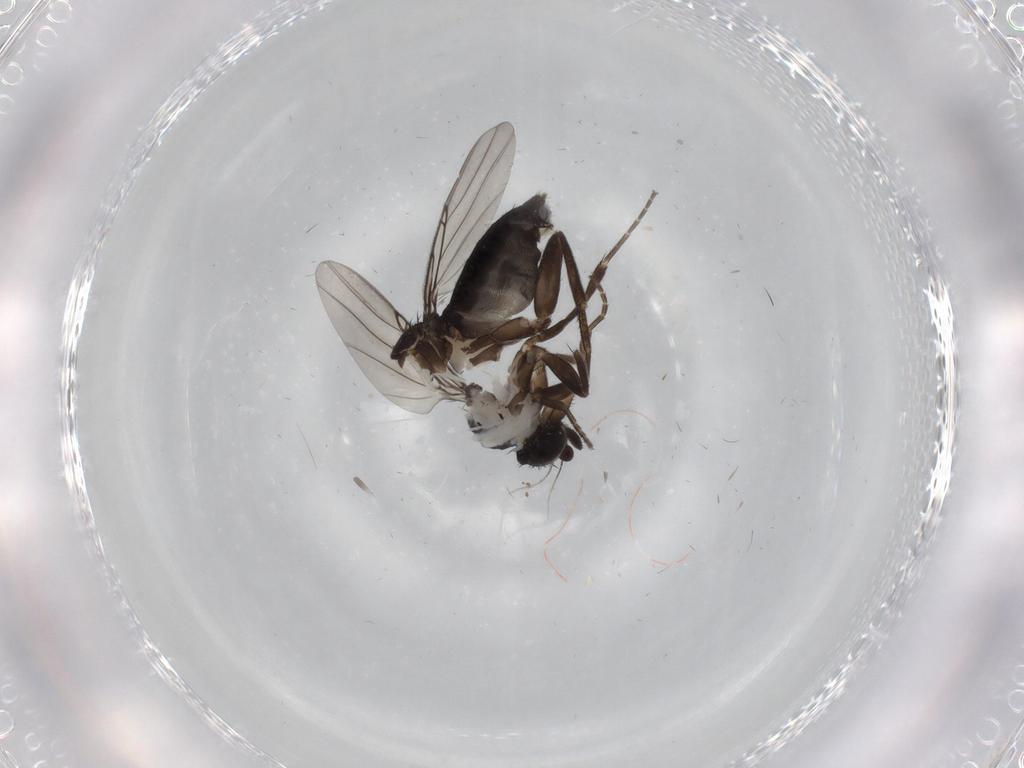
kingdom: Animalia
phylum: Arthropoda
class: Insecta
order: Diptera
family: Phoridae
